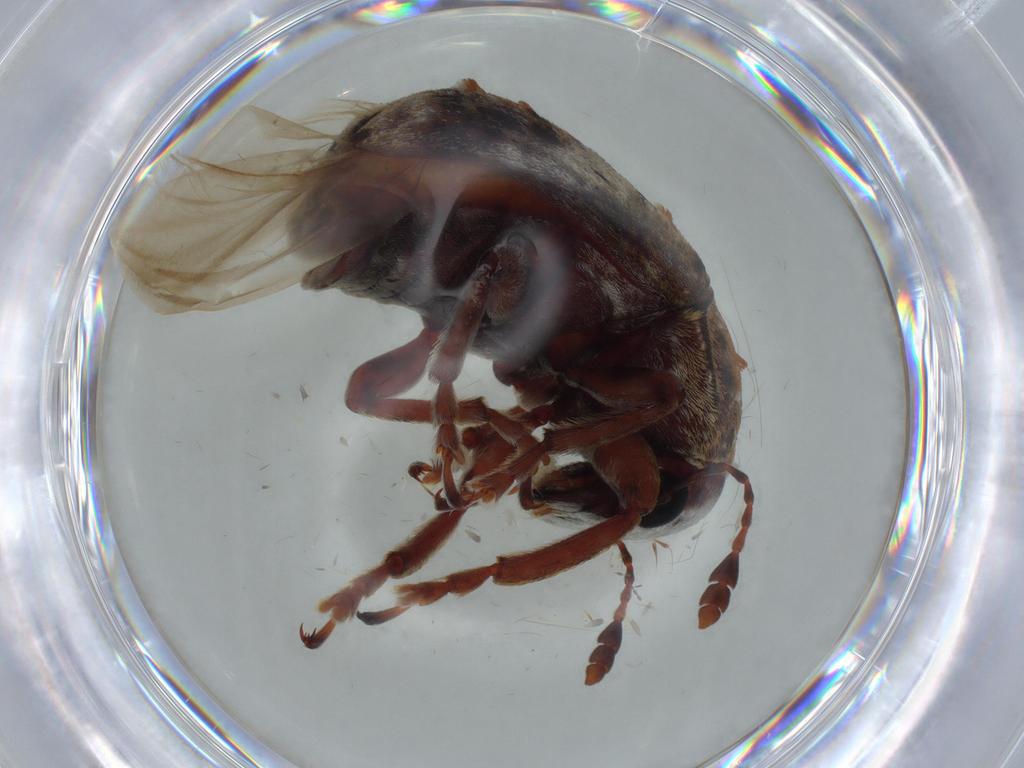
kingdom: Animalia
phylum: Arthropoda
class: Insecta
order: Coleoptera
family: Anthribidae
